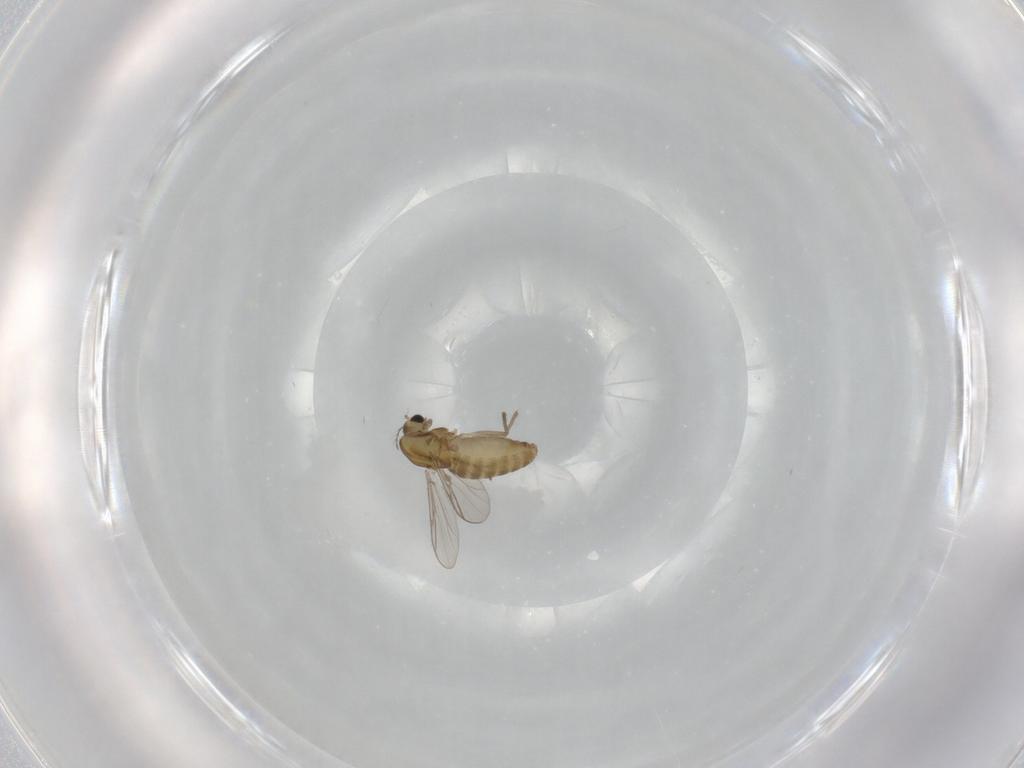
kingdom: Animalia
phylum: Arthropoda
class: Insecta
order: Diptera
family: Chironomidae
